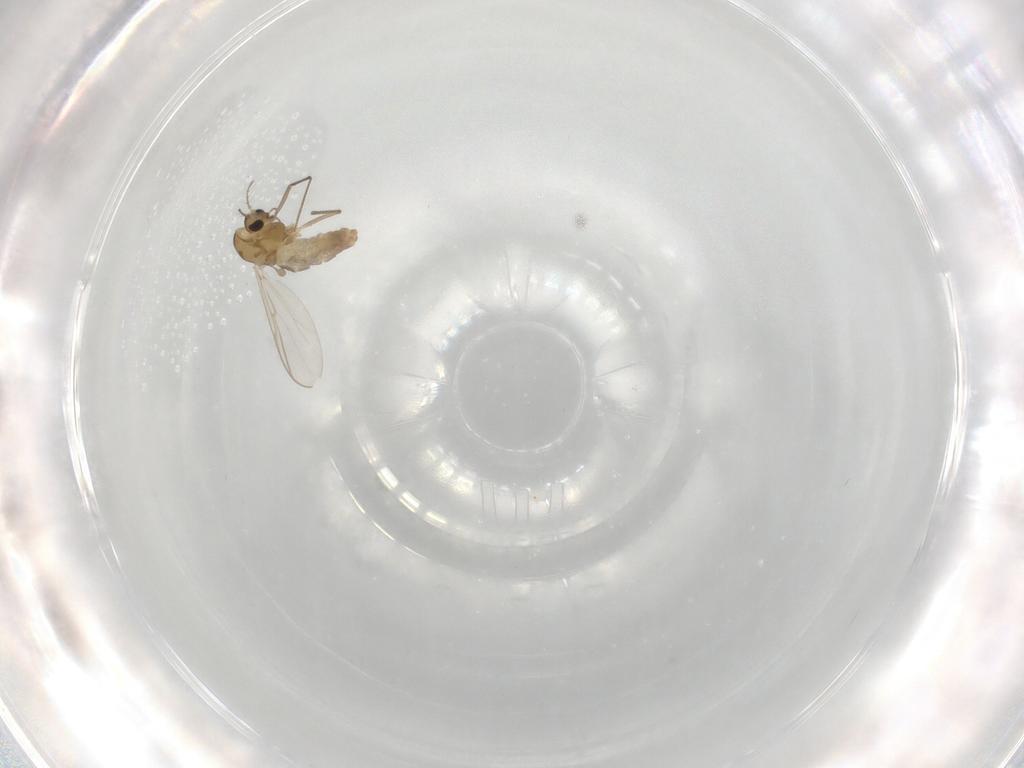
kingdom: Animalia
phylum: Arthropoda
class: Insecta
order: Diptera
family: Chironomidae
